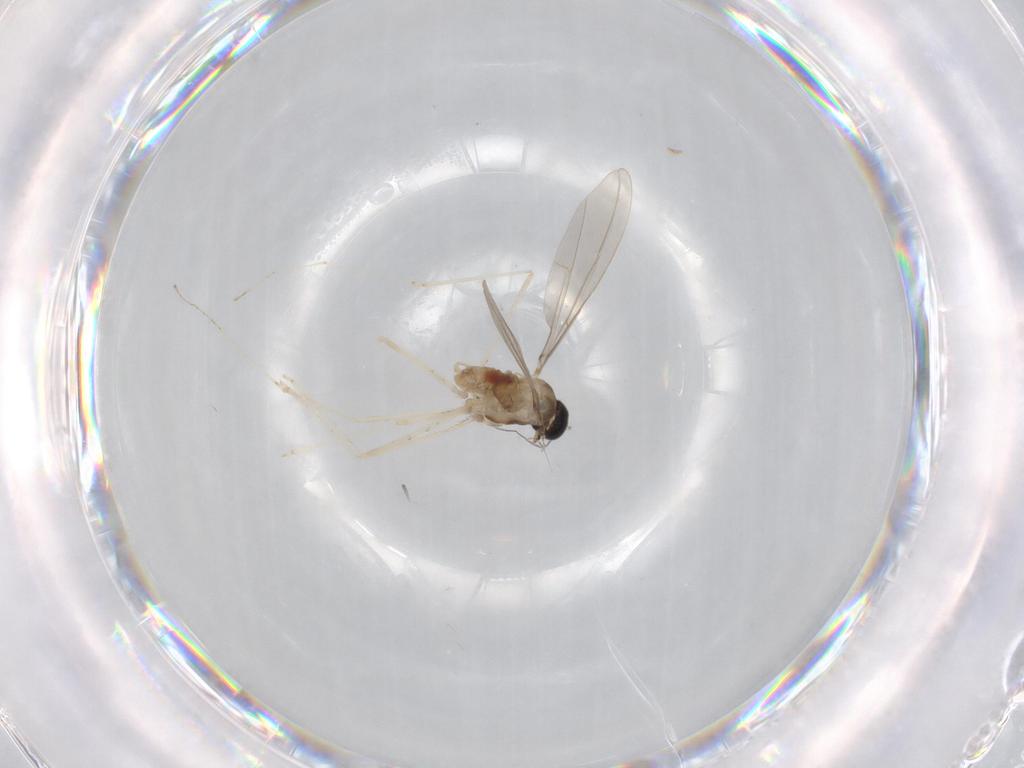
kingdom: Animalia
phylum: Arthropoda
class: Insecta
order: Diptera
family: Cecidomyiidae
